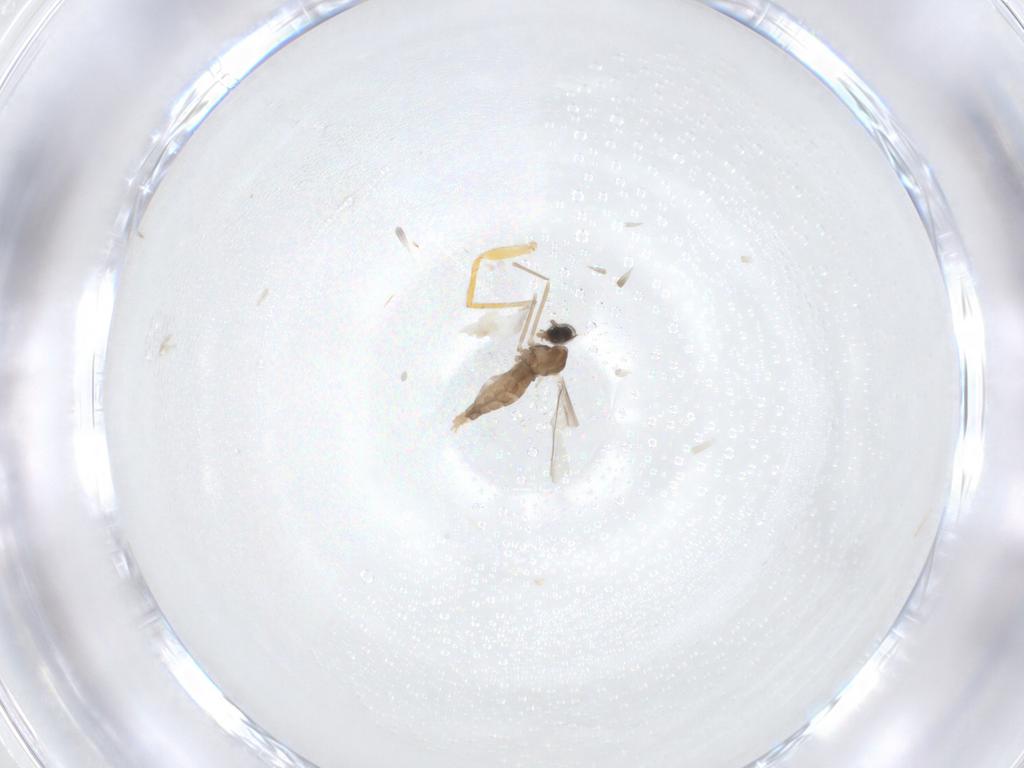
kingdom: Animalia
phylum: Arthropoda
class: Insecta
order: Diptera
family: Cecidomyiidae
